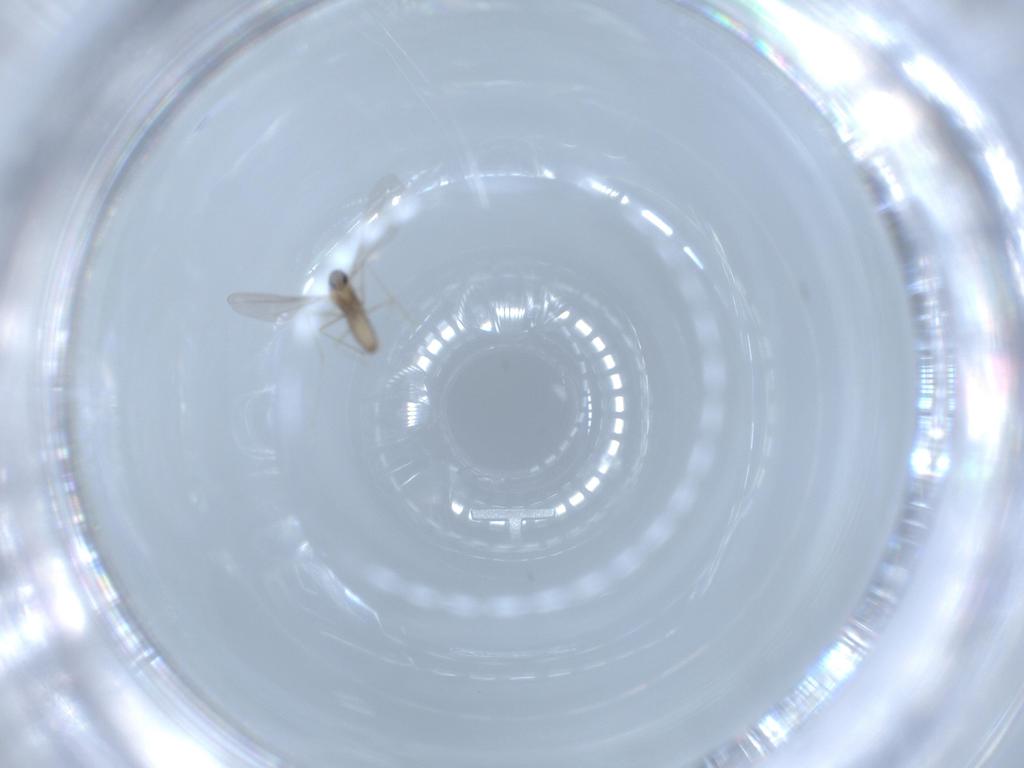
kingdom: Animalia
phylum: Arthropoda
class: Insecta
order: Diptera
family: Cecidomyiidae
